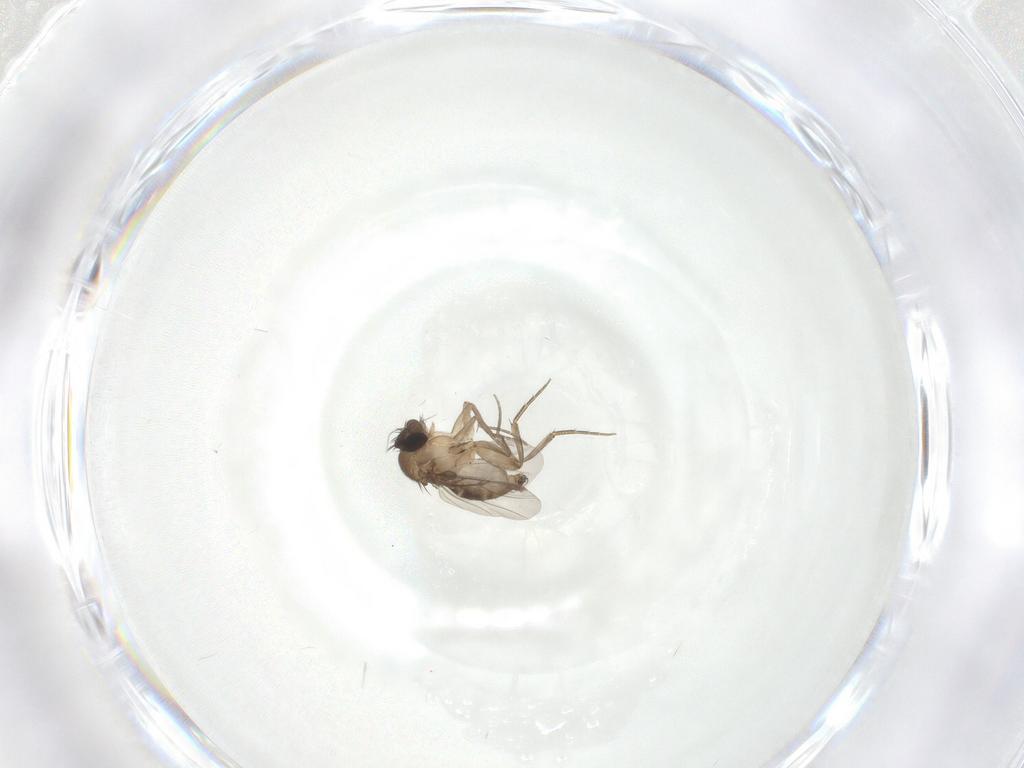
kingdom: Animalia
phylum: Arthropoda
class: Insecta
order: Diptera
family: Phoridae
